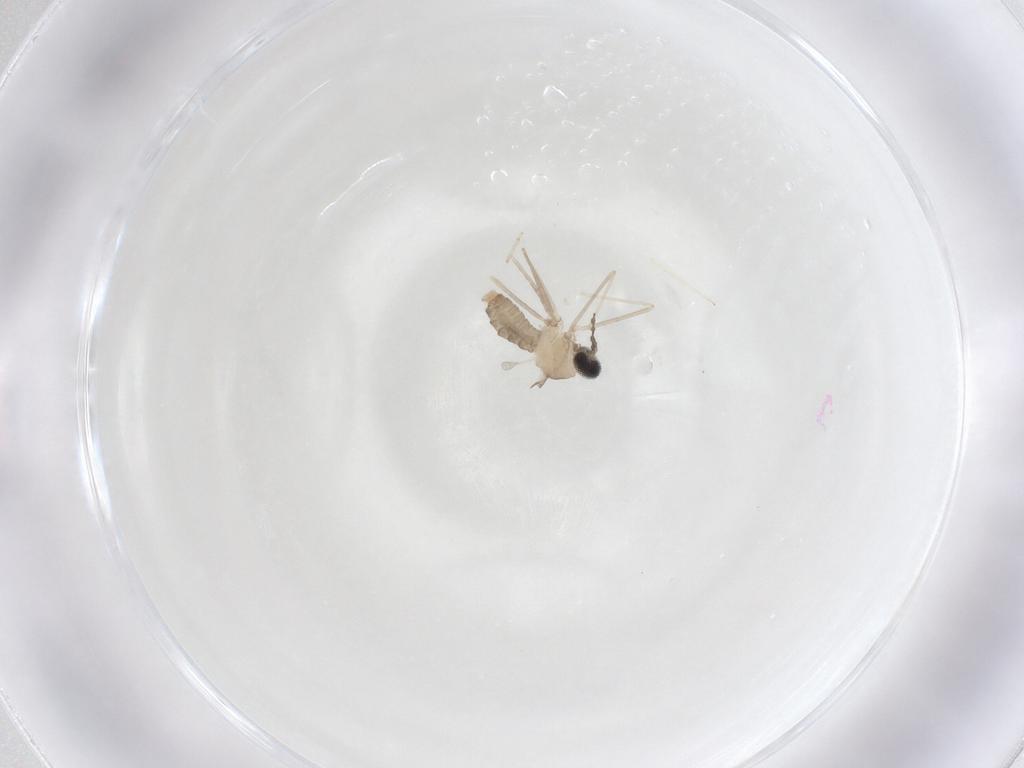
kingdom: Animalia
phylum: Arthropoda
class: Insecta
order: Diptera
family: Cecidomyiidae
